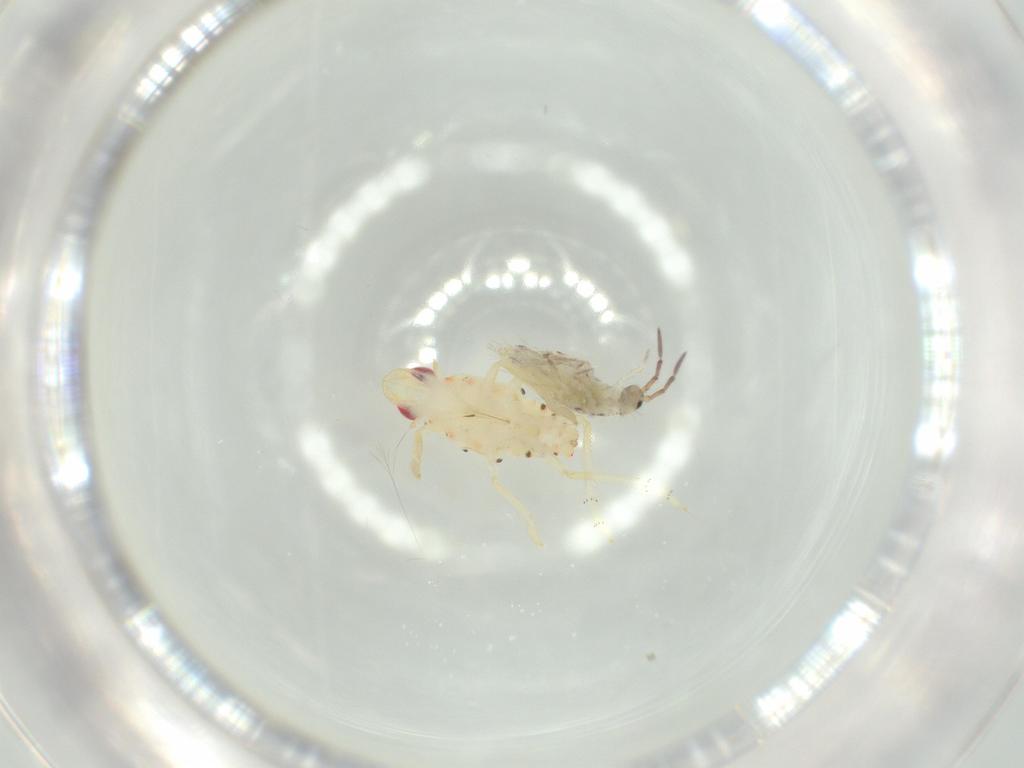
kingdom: Animalia
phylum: Arthropoda
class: Insecta
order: Hemiptera
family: Tropiduchidae
